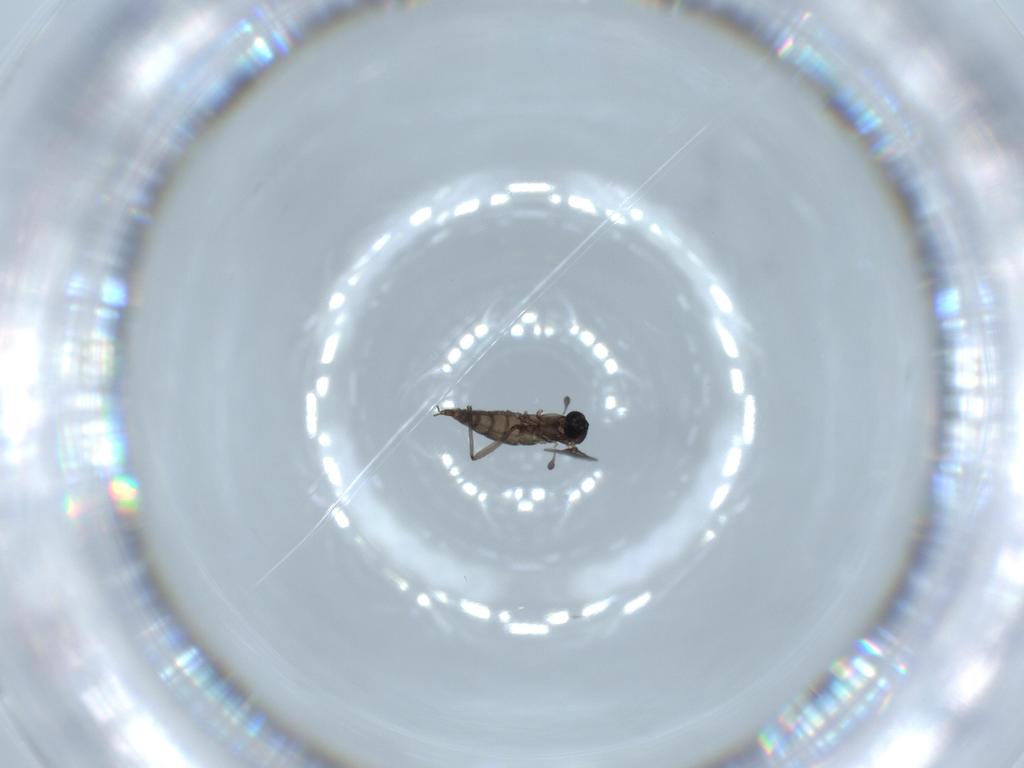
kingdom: Animalia
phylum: Arthropoda
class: Insecta
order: Diptera
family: Sciaridae
